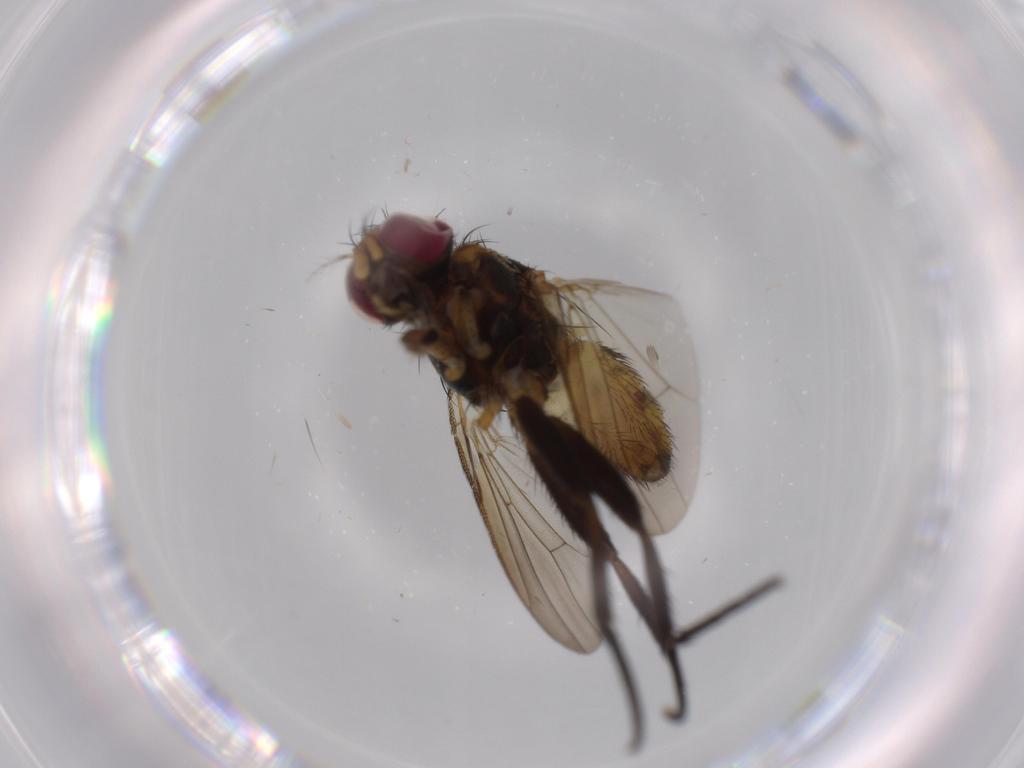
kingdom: Animalia
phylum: Arthropoda
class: Insecta
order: Diptera
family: Anthomyiidae
